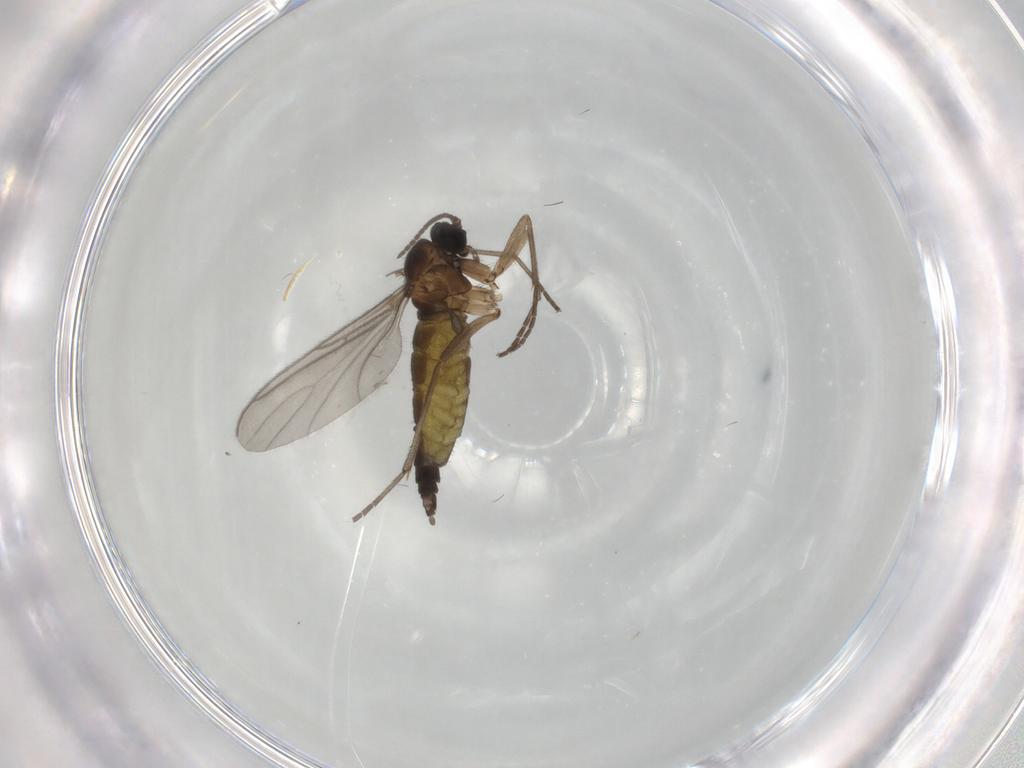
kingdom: Animalia
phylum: Arthropoda
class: Insecta
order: Diptera
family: Sciaridae
